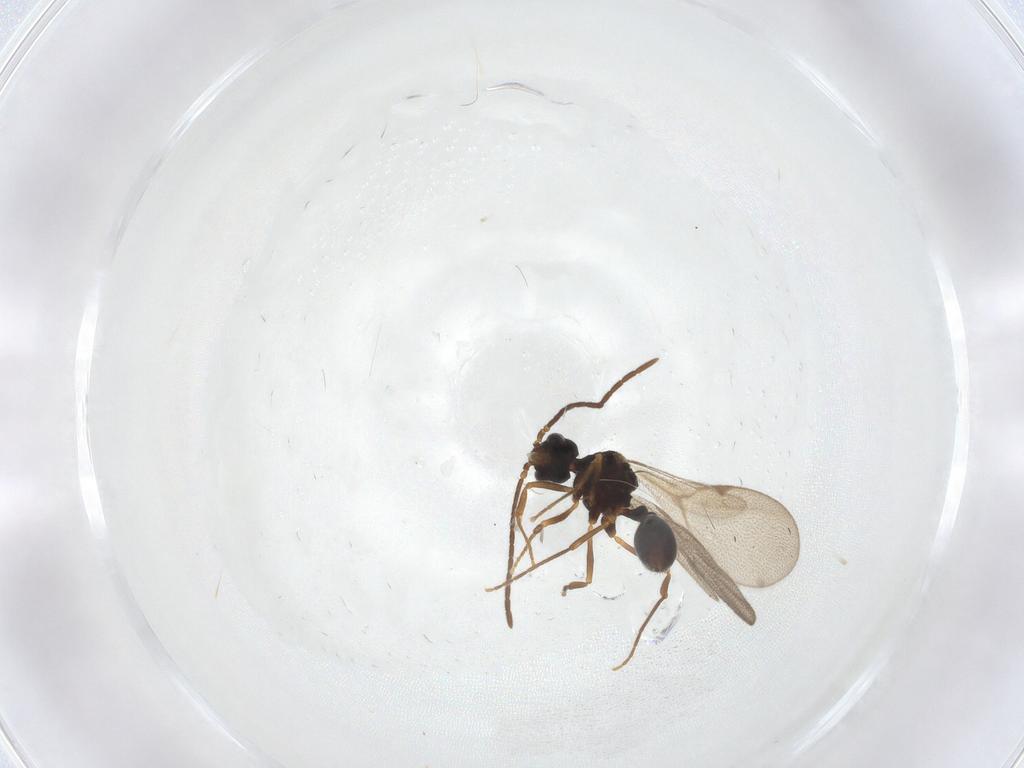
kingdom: Animalia
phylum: Arthropoda
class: Insecta
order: Hymenoptera
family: Formicidae
